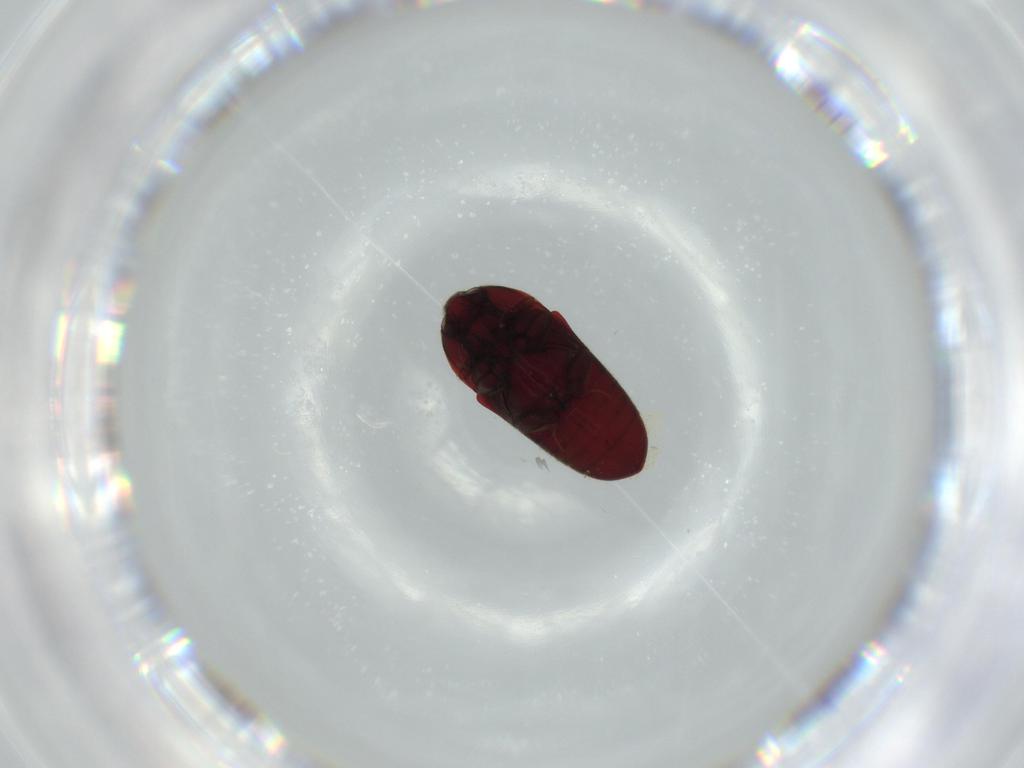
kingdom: Animalia
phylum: Arthropoda
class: Insecta
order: Coleoptera
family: Throscidae
